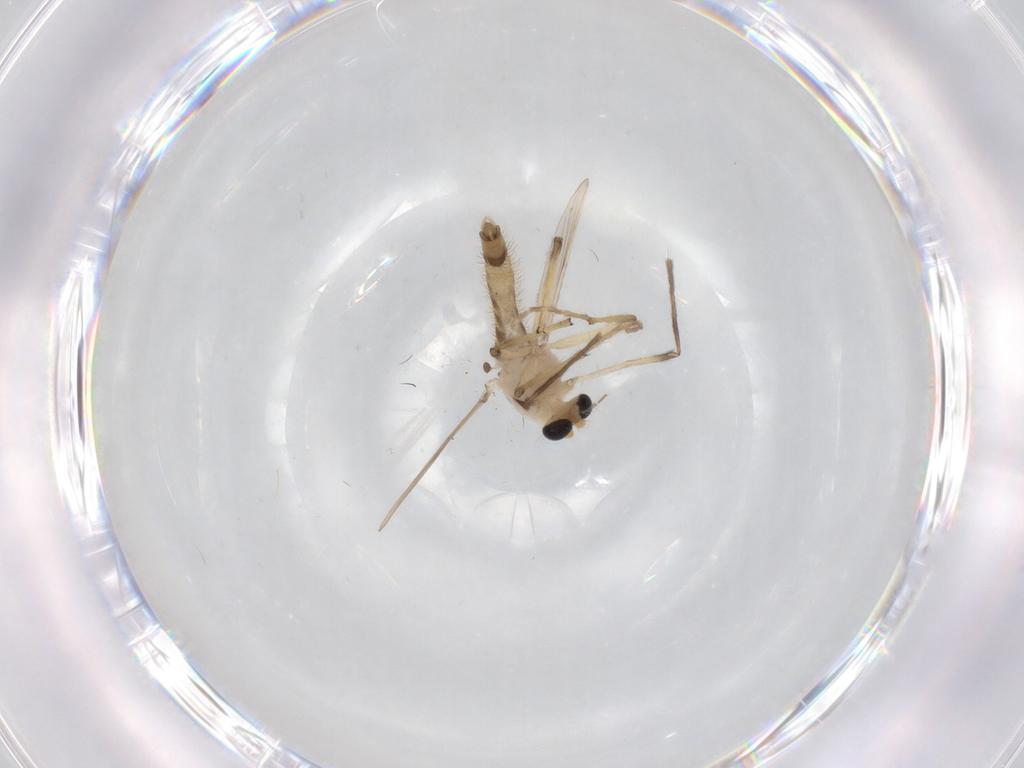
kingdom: Animalia
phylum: Arthropoda
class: Insecta
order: Diptera
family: Chironomidae
